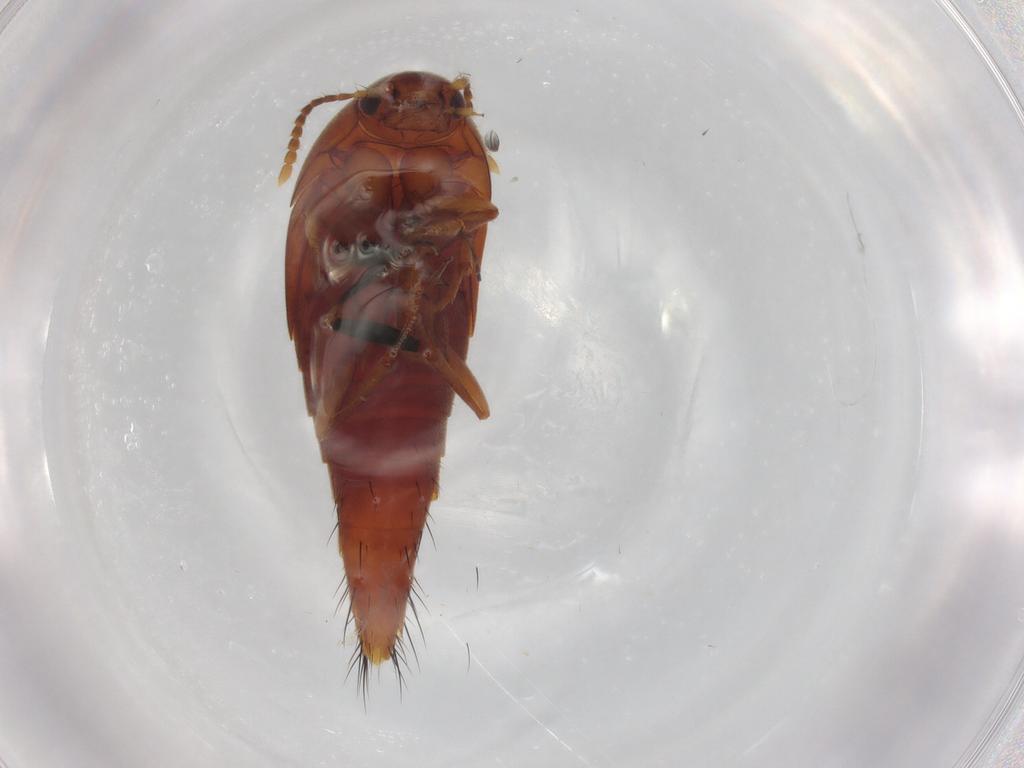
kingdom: Animalia
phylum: Arthropoda
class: Insecta
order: Coleoptera
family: Staphylinidae
